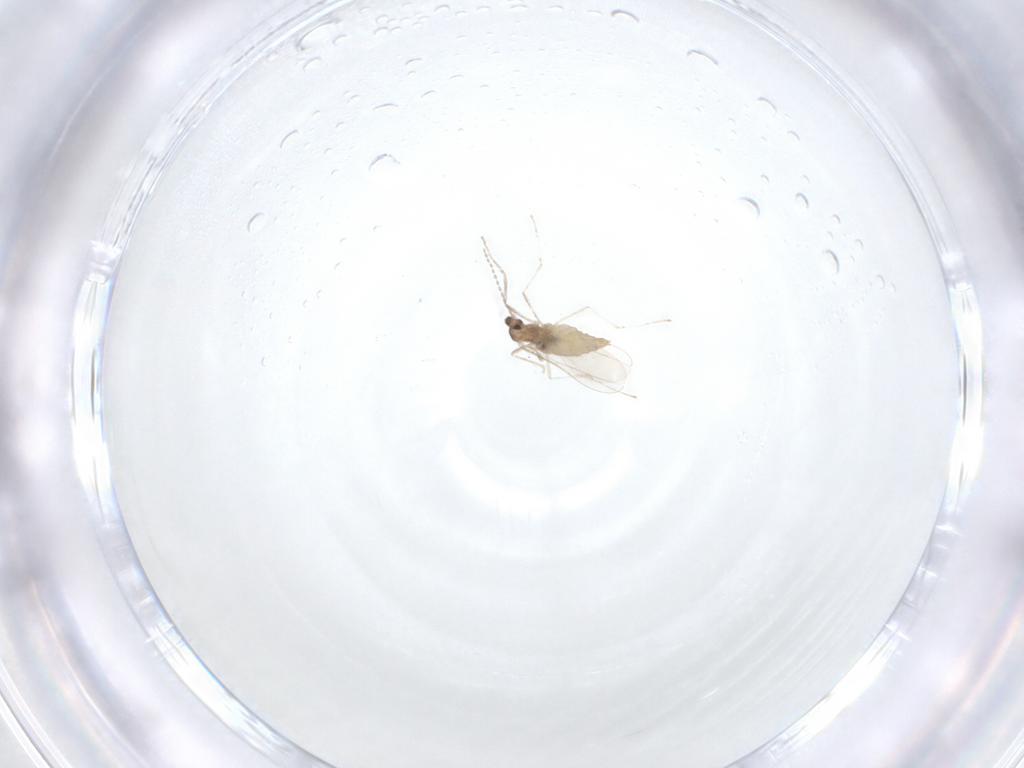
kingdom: Animalia
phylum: Arthropoda
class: Insecta
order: Diptera
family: Cecidomyiidae
